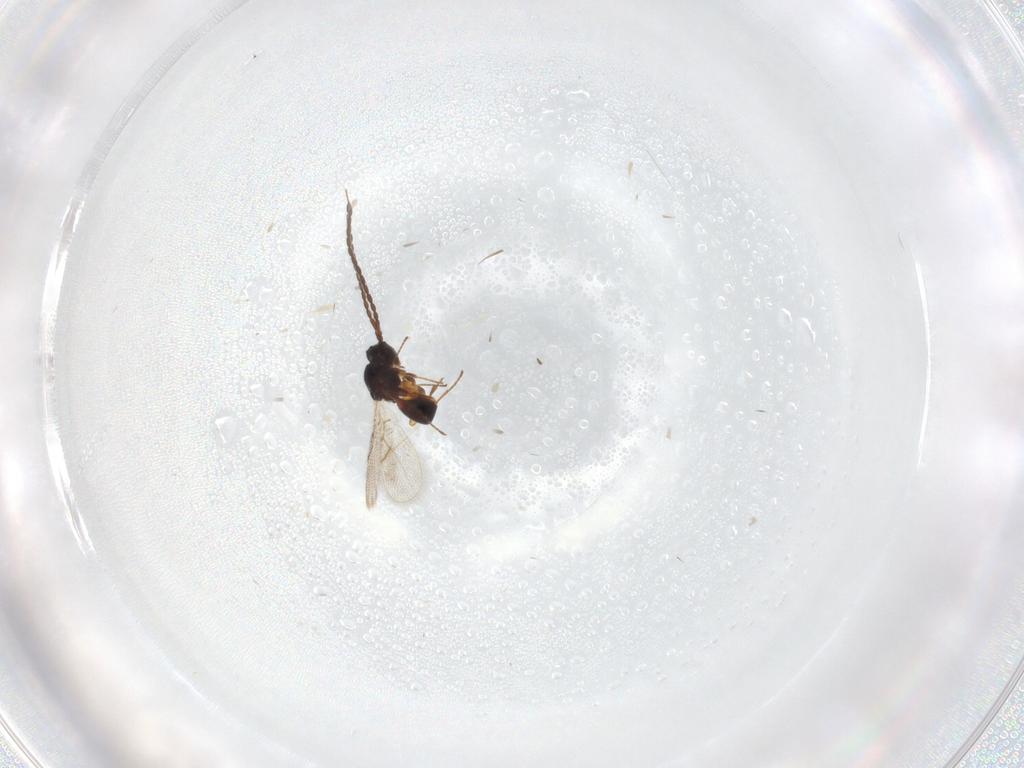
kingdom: Animalia
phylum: Arthropoda
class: Insecta
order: Hymenoptera
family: Figitidae
